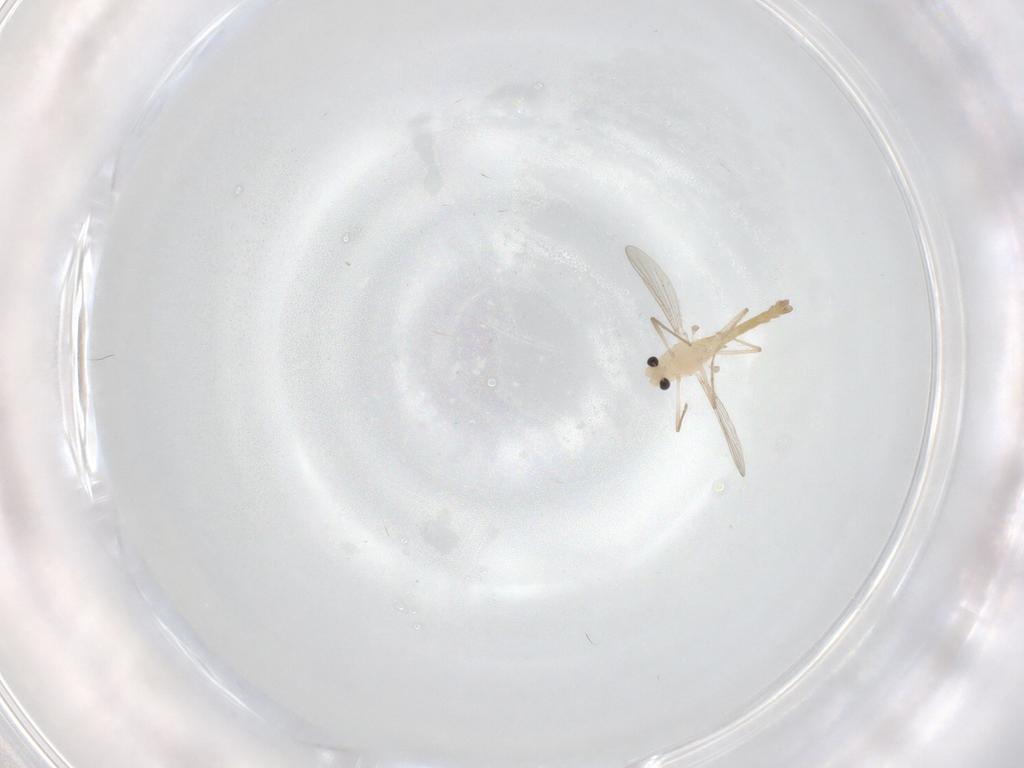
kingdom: Animalia
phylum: Arthropoda
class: Insecta
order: Diptera
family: Chironomidae
